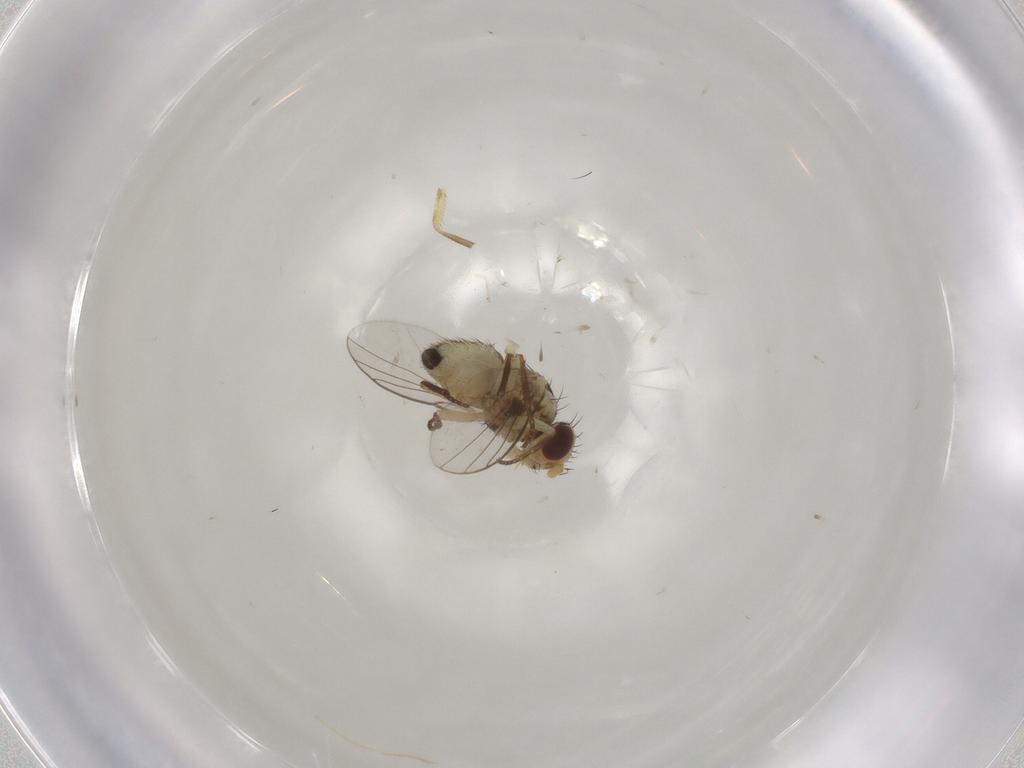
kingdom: Animalia
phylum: Arthropoda
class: Insecta
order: Diptera
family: Agromyzidae
